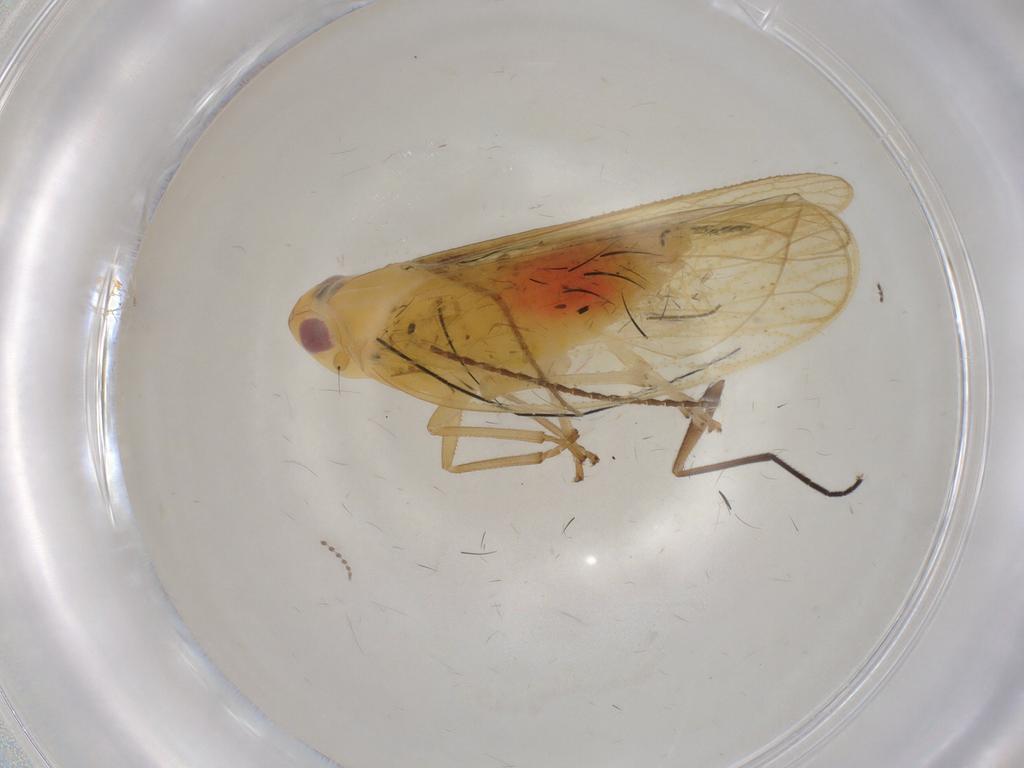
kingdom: Animalia
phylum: Arthropoda
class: Insecta
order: Hemiptera
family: Cixiidae
